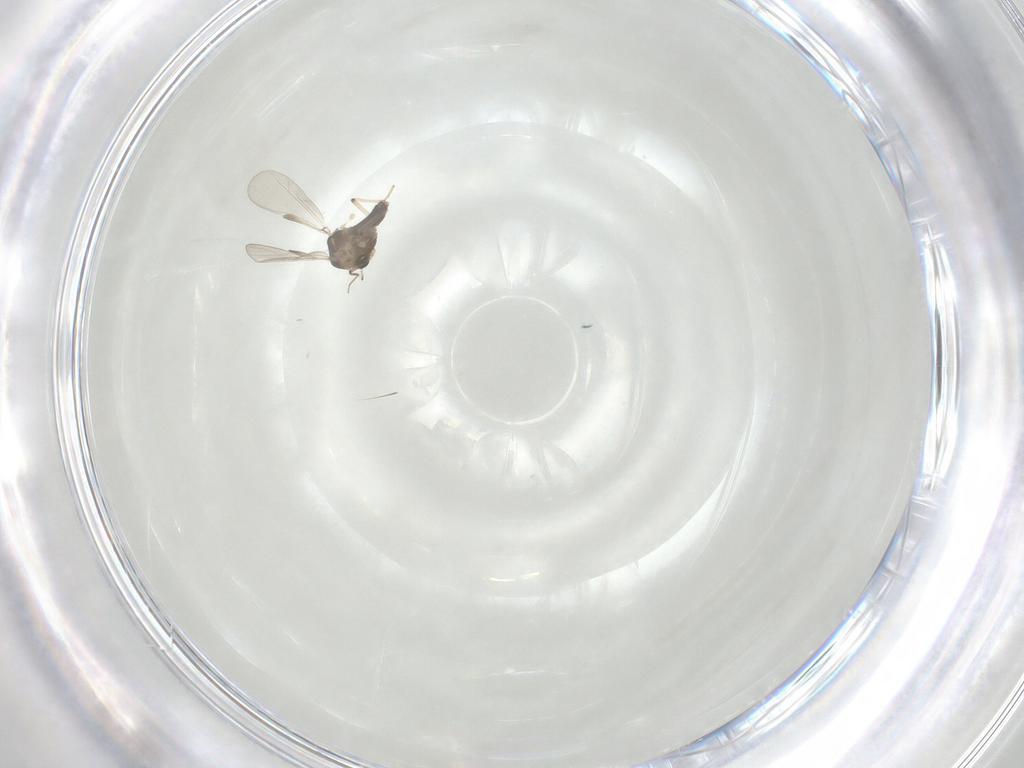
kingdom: Animalia
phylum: Arthropoda
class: Insecta
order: Diptera
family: Chironomidae
